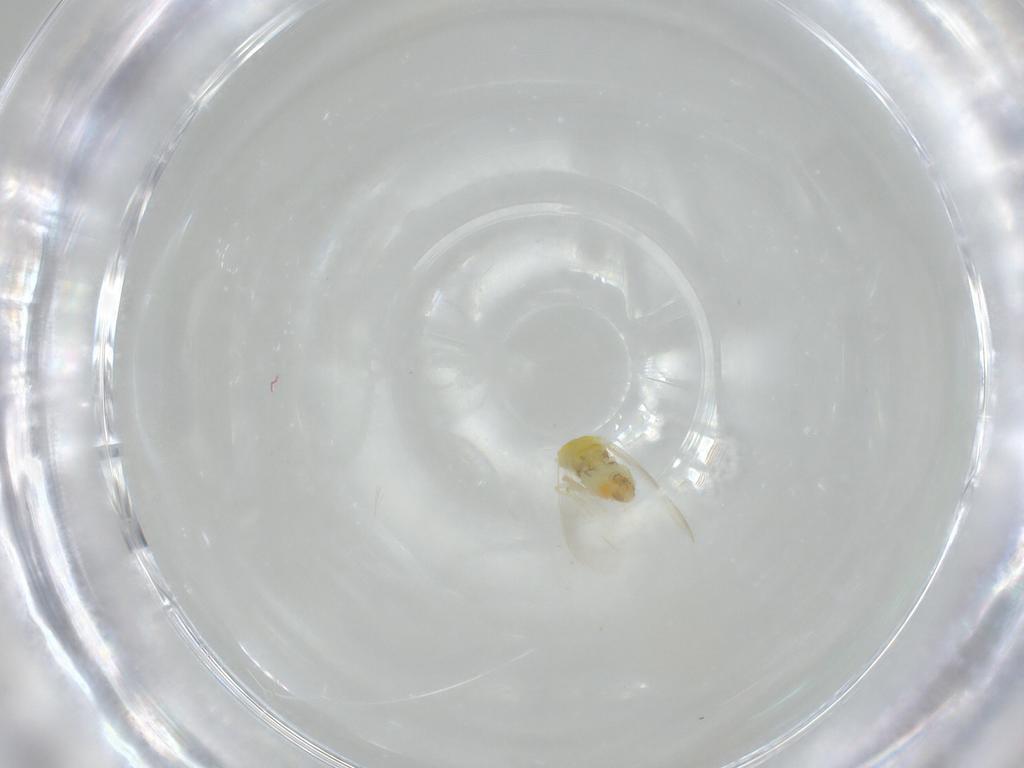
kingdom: Animalia
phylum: Arthropoda
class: Insecta
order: Hemiptera
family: Aleyrodidae
